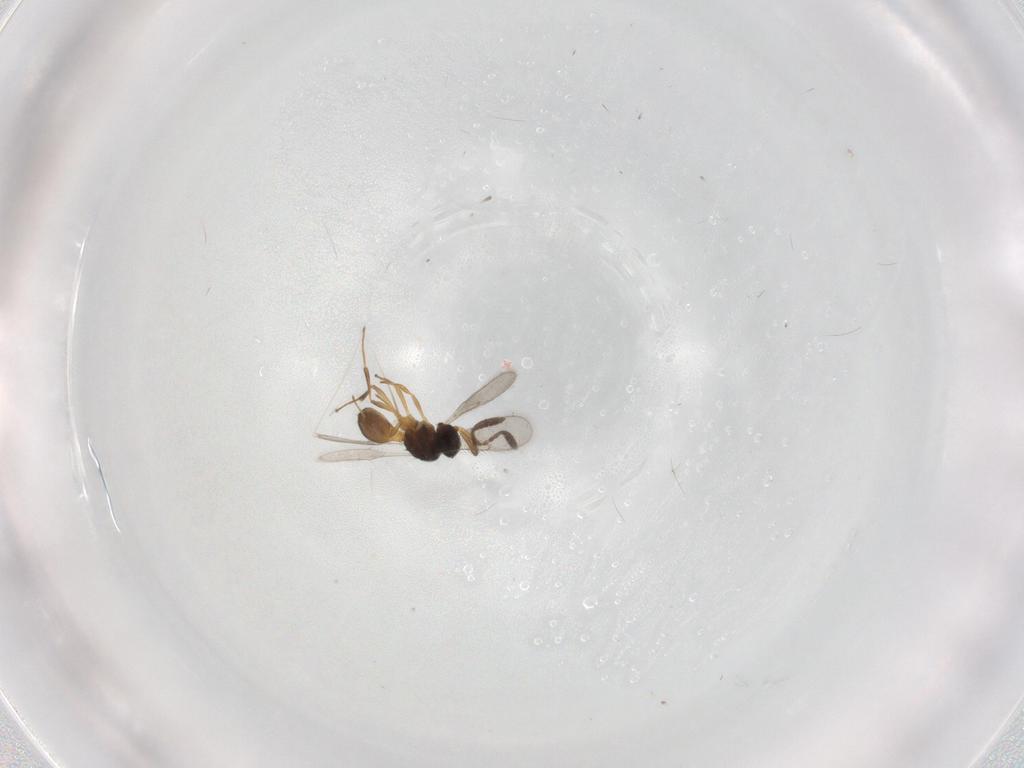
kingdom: Animalia
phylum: Arthropoda
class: Insecta
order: Hymenoptera
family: Scelionidae
